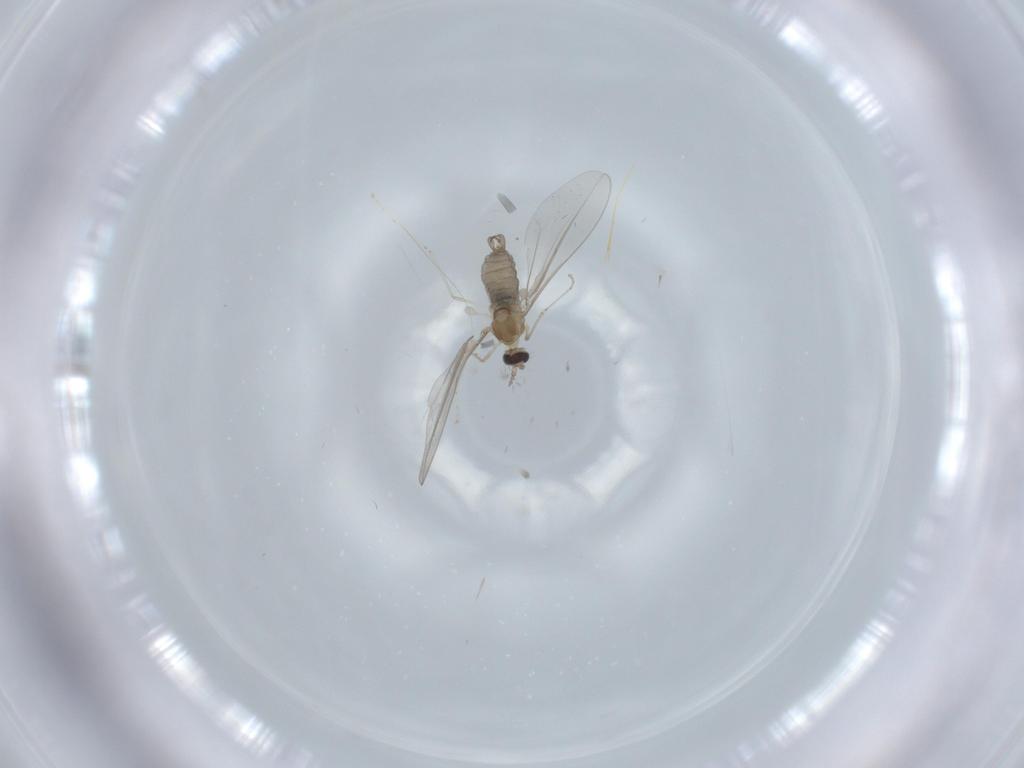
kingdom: Animalia
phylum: Arthropoda
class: Insecta
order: Diptera
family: Cecidomyiidae
